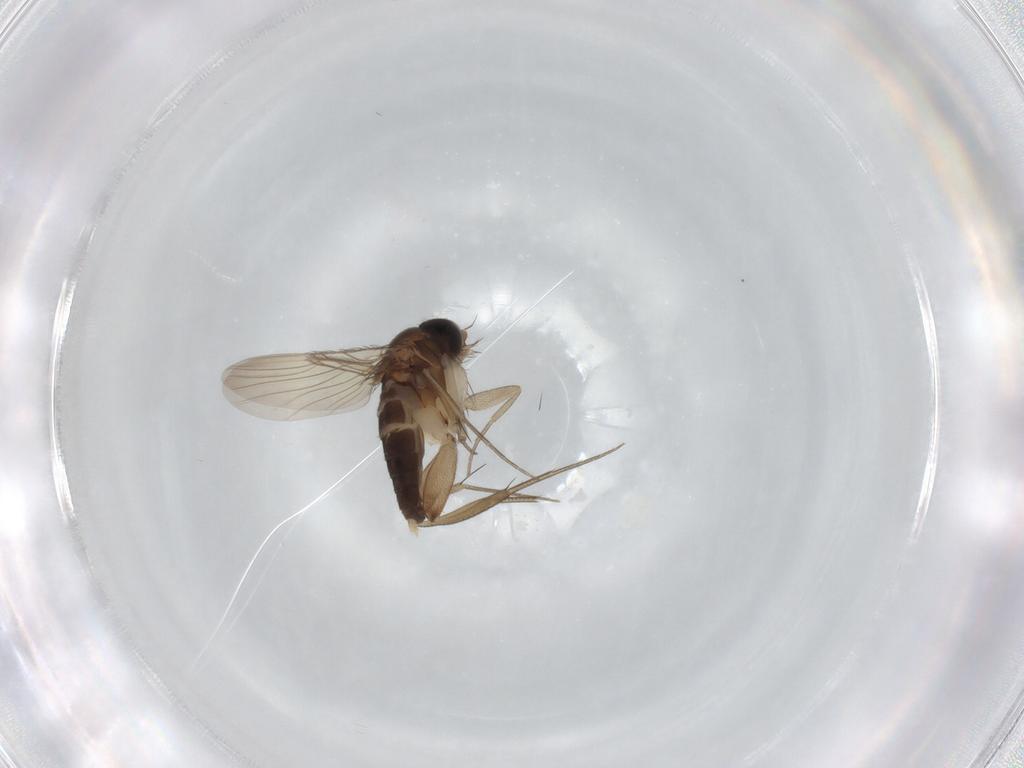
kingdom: Animalia
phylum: Arthropoda
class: Insecta
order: Diptera
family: Phoridae
